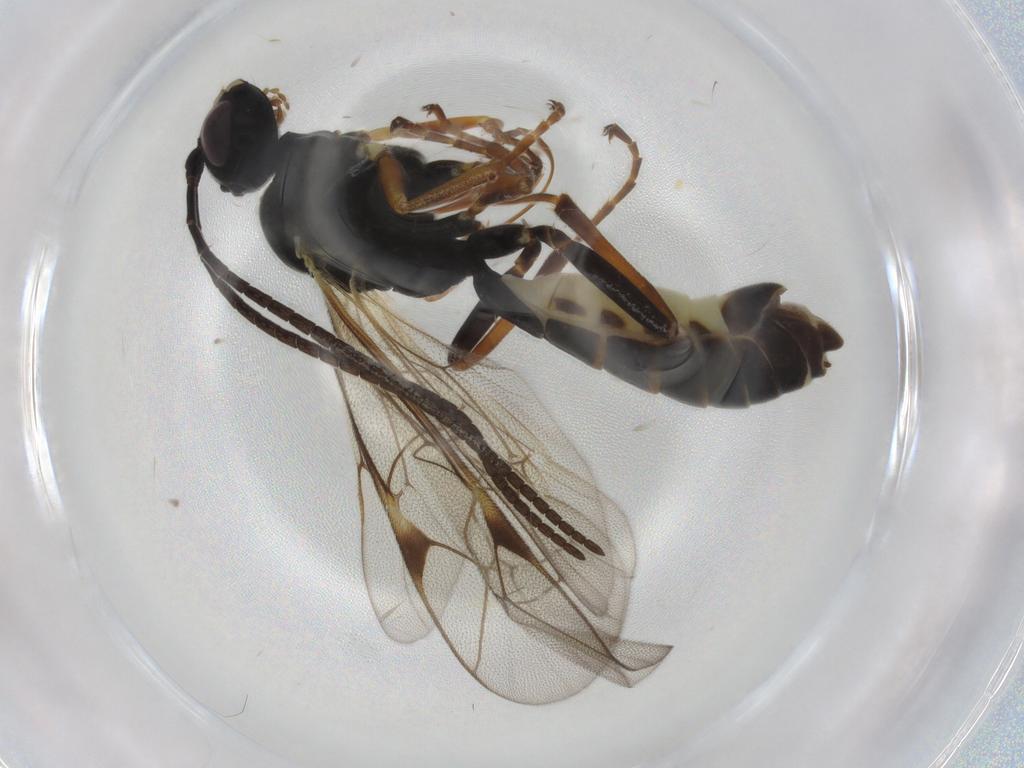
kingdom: Animalia
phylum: Arthropoda
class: Insecta
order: Hymenoptera
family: Ichneumonidae
